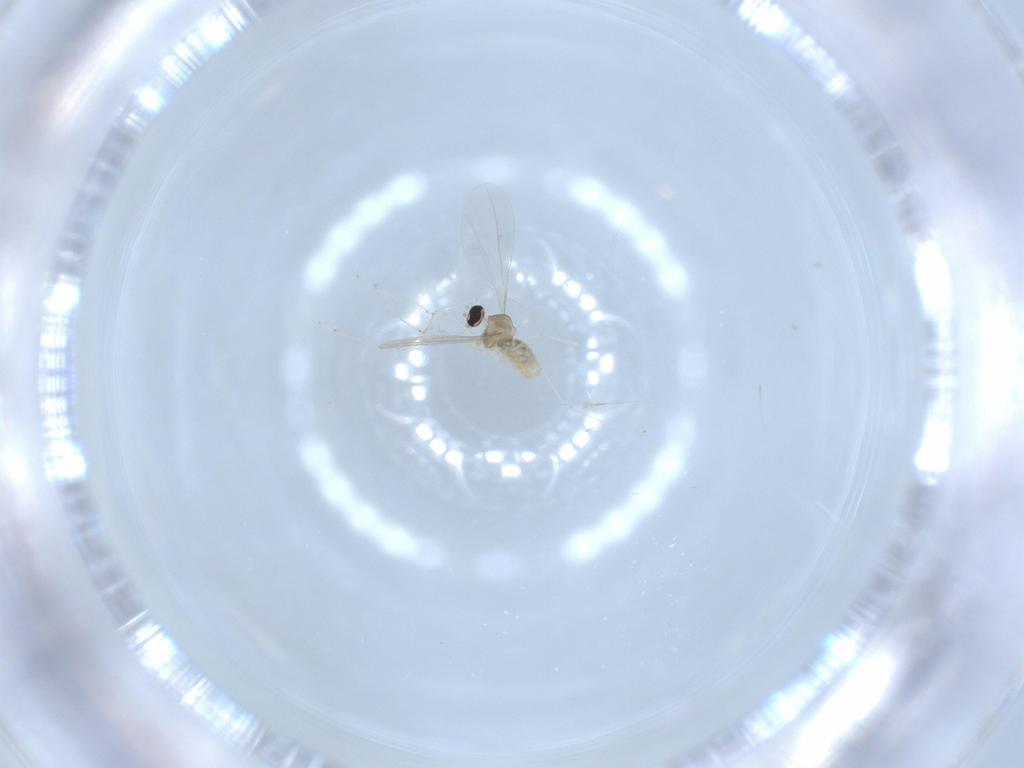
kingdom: Animalia
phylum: Arthropoda
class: Insecta
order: Diptera
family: Cecidomyiidae
